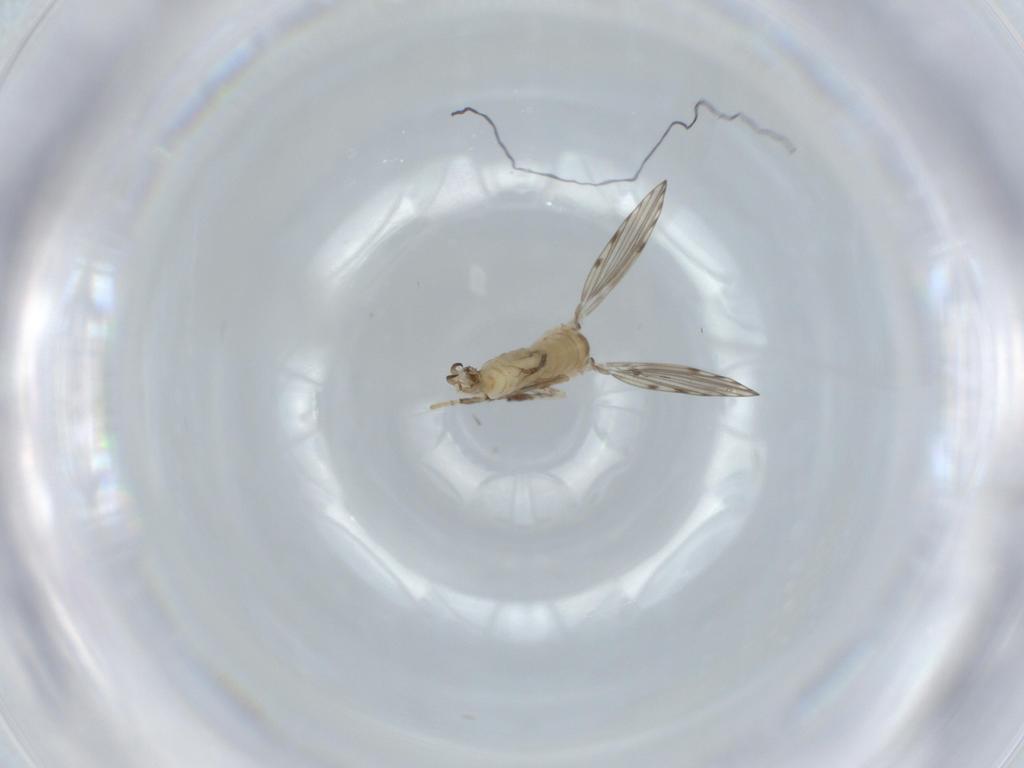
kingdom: Animalia
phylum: Arthropoda
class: Insecta
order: Diptera
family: Psychodidae
